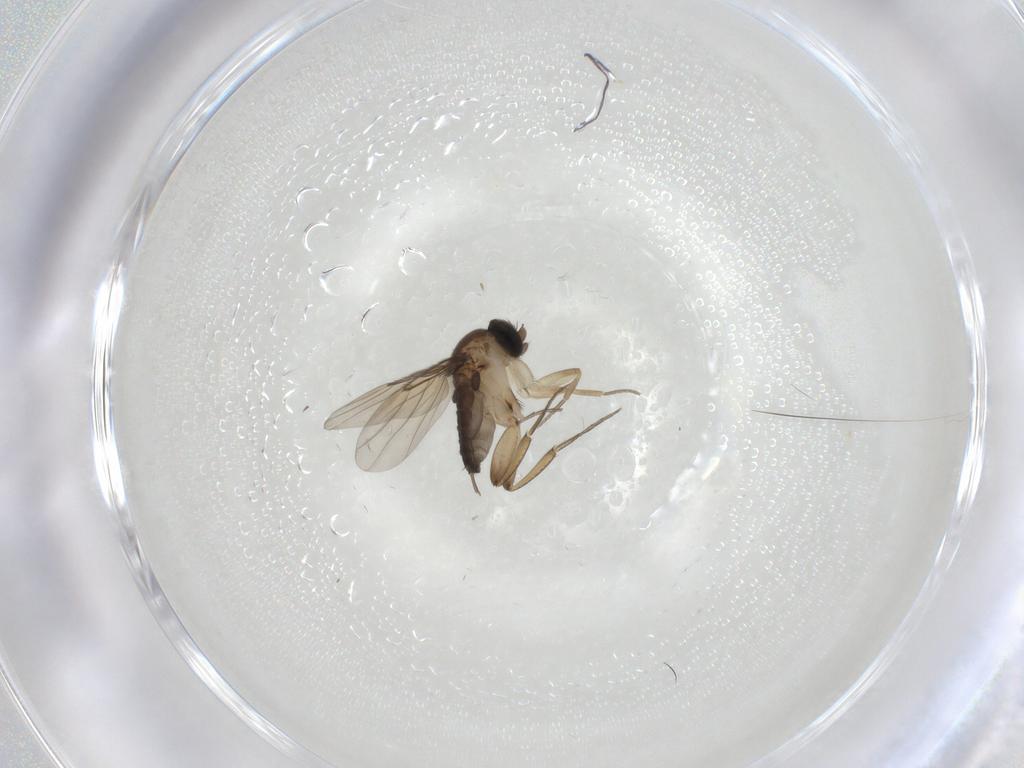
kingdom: Animalia
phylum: Arthropoda
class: Insecta
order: Diptera
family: Phoridae
